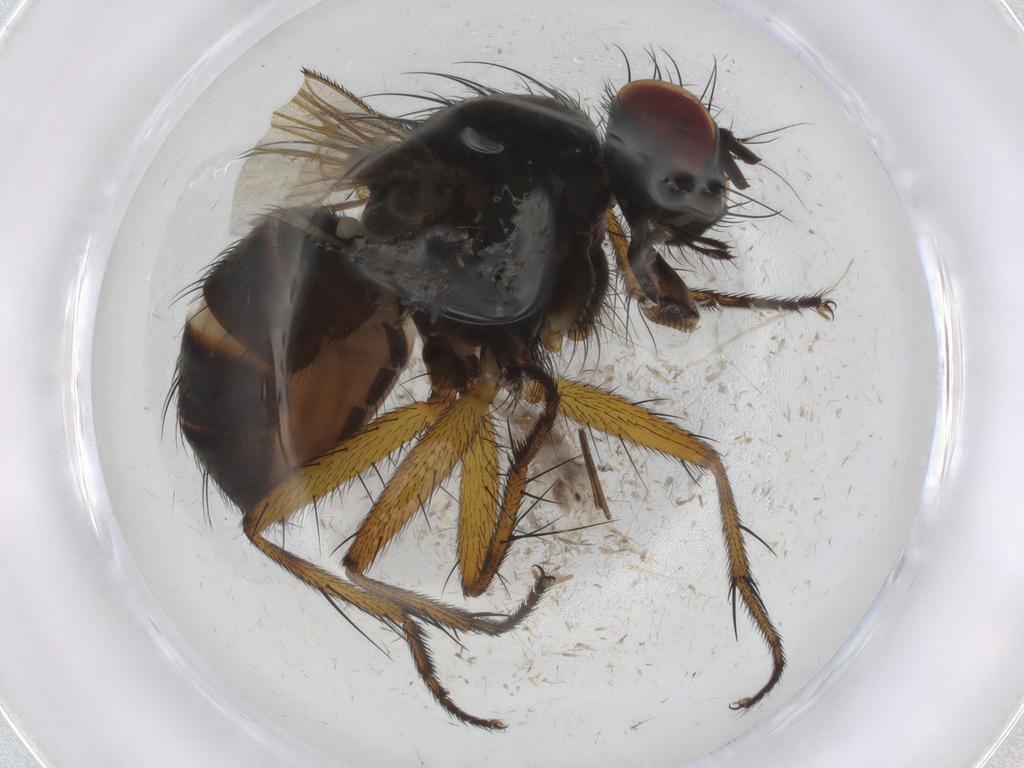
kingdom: Animalia
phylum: Arthropoda
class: Insecta
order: Diptera
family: Muscidae
